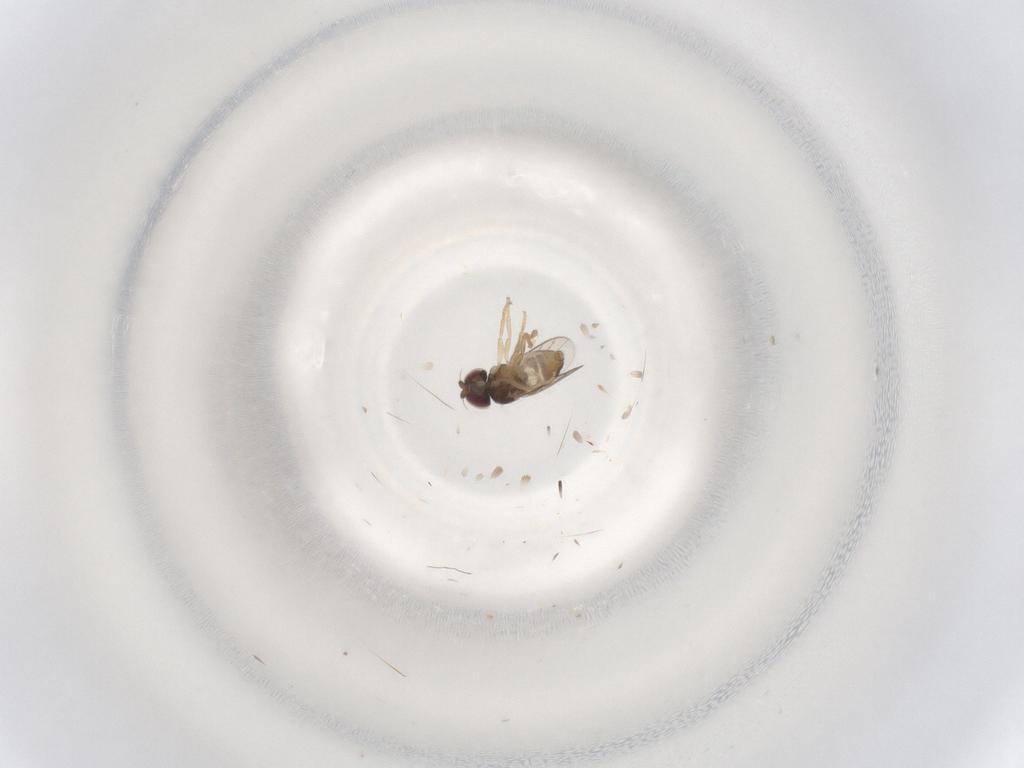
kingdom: Animalia
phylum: Arthropoda
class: Insecta
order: Diptera
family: Chloropidae
